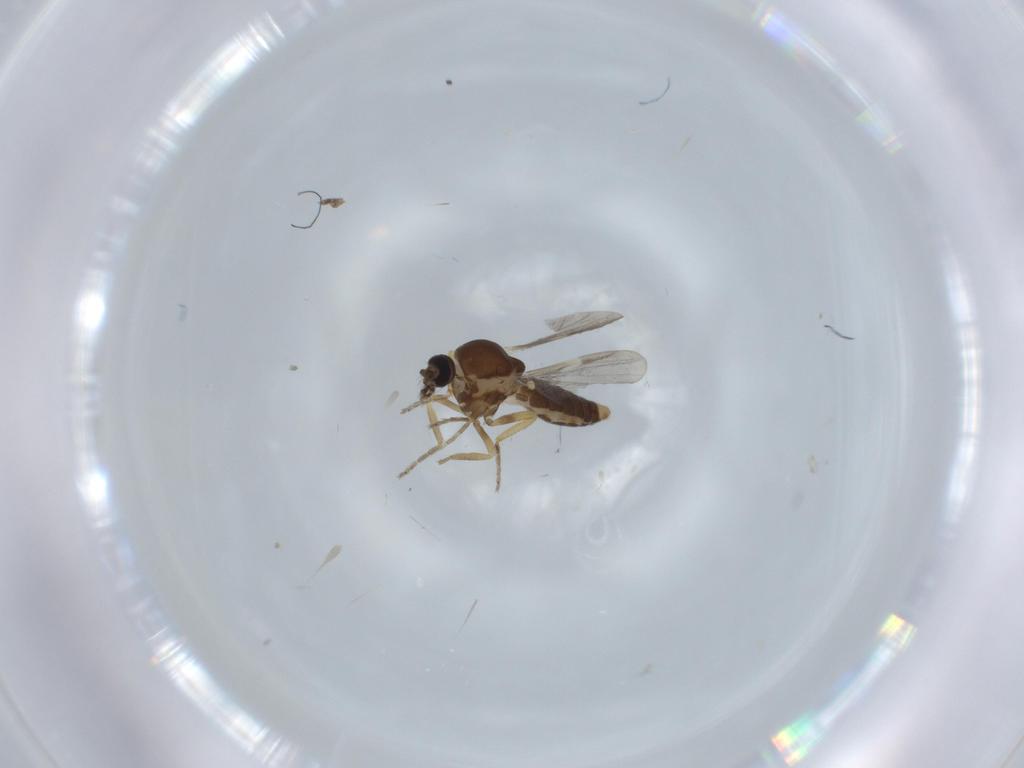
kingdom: Animalia
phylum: Arthropoda
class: Insecta
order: Diptera
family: Ceratopogonidae
